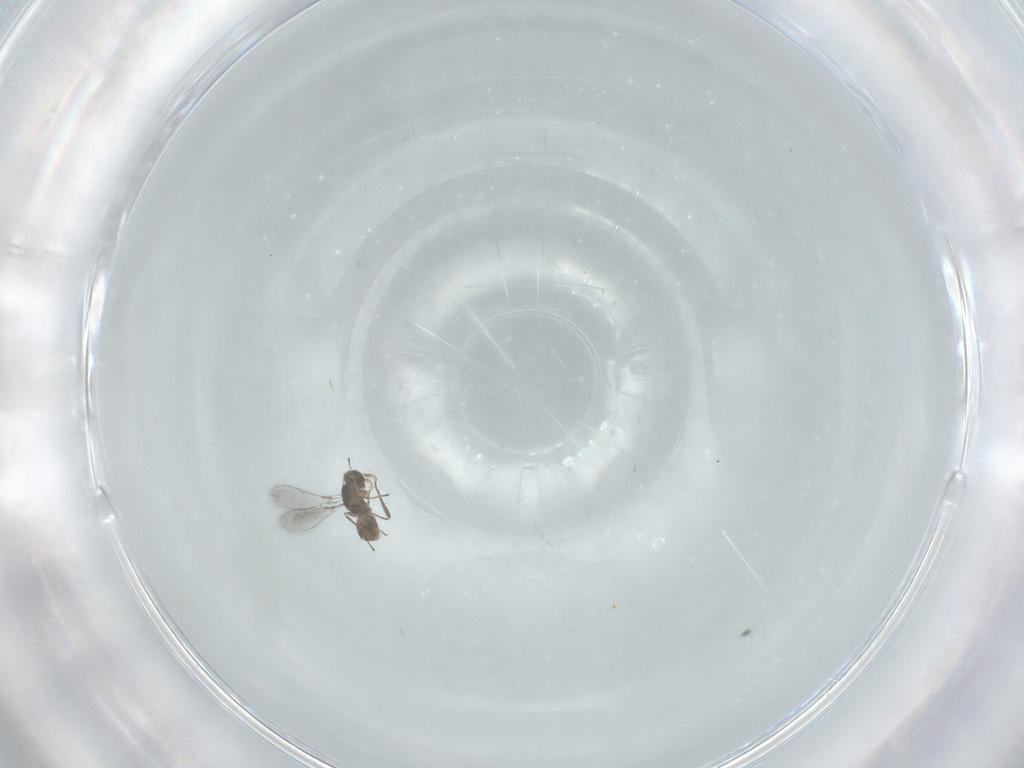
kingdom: Animalia
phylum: Arthropoda
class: Insecta
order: Hymenoptera
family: Mymaridae
